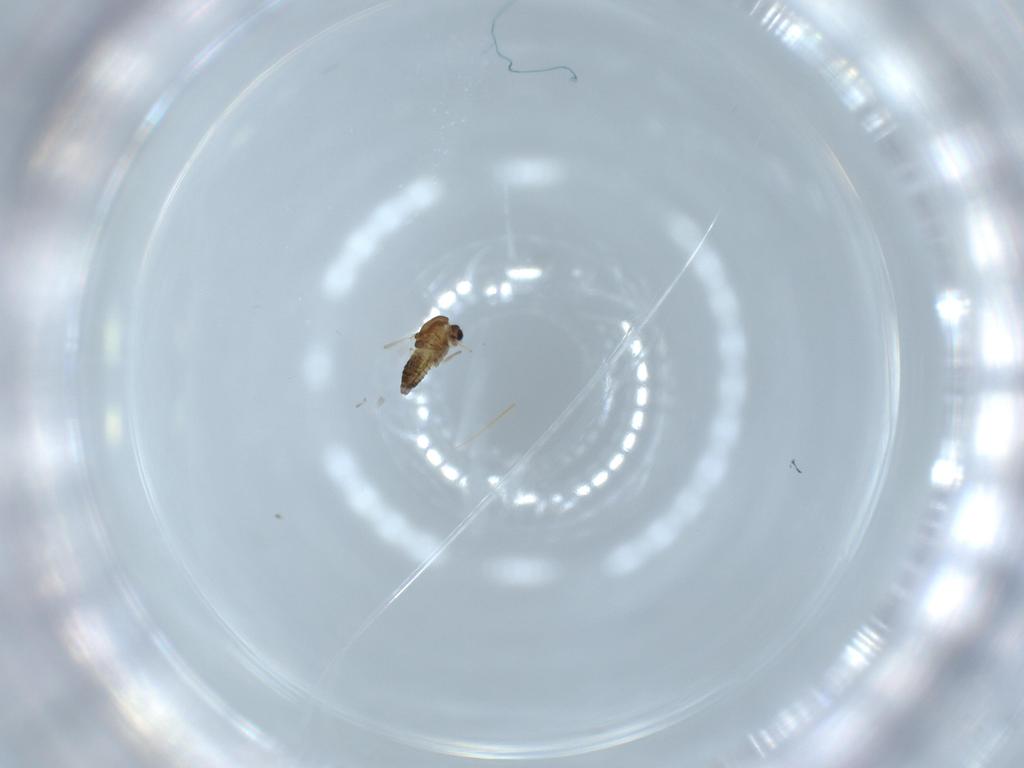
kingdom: Animalia
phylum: Arthropoda
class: Insecta
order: Diptera
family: Chironomidae
